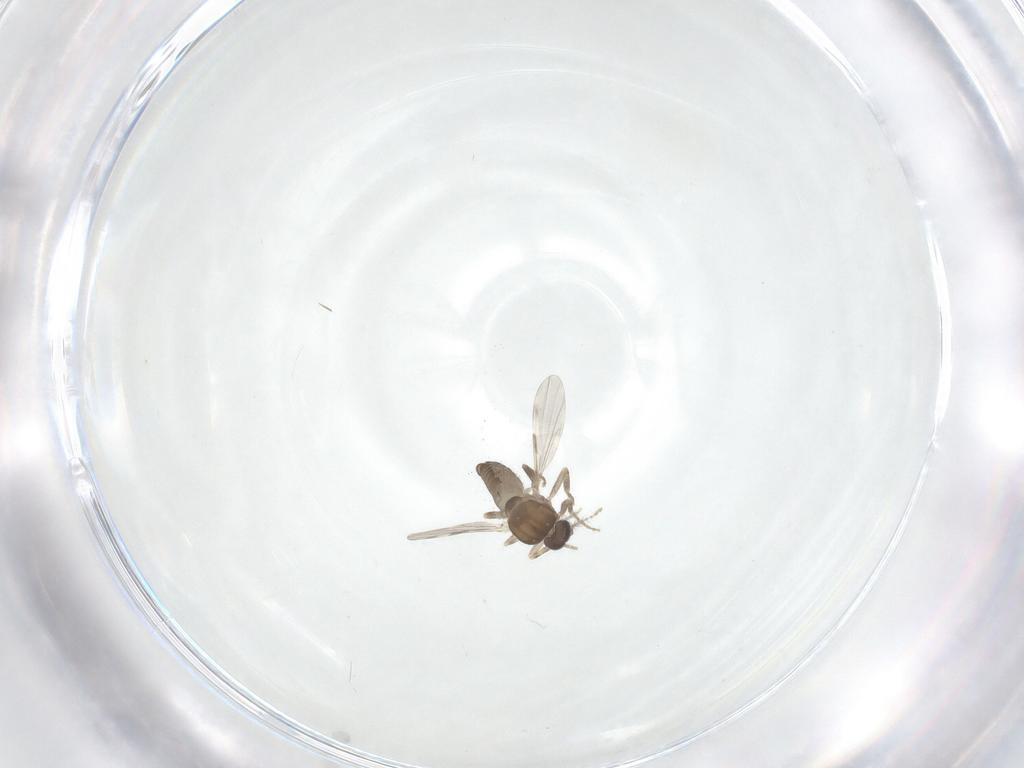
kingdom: Animalia
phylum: Arthropoda
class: Insecta
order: Diptera
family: Ceratopogonidae
